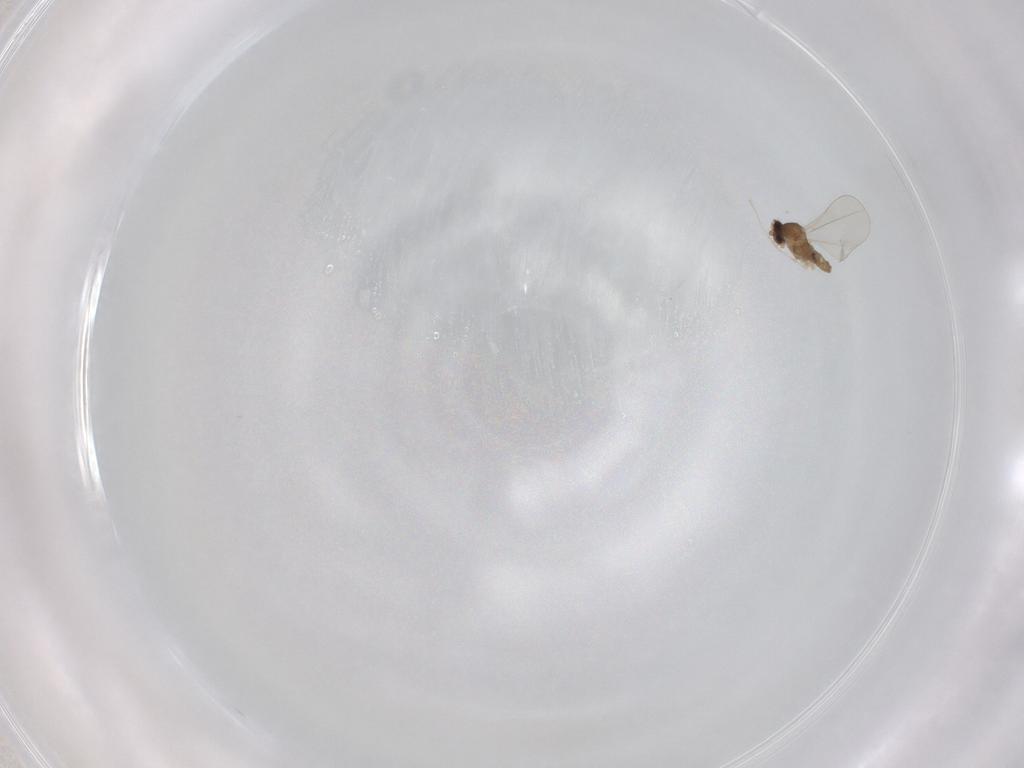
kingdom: Animalia
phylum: Arthropoda
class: Insecta
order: Diptera
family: Cecidomyiidae
